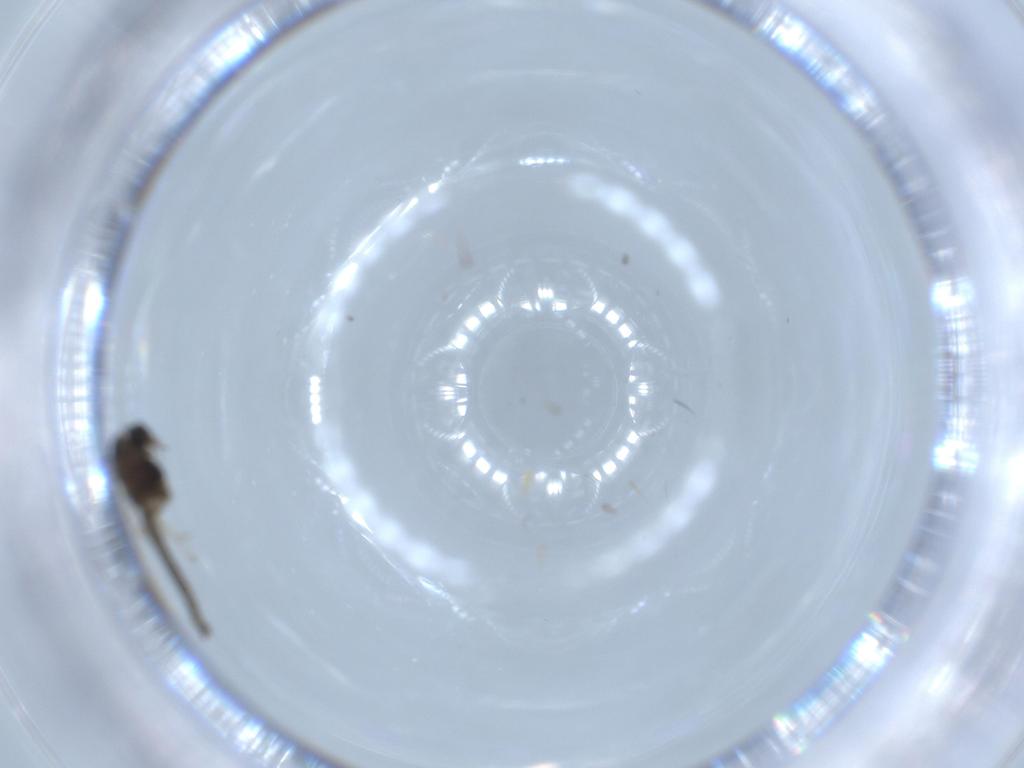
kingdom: Animalia
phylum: Arthropoda
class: Insecta
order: Diptera
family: Chironomidae
